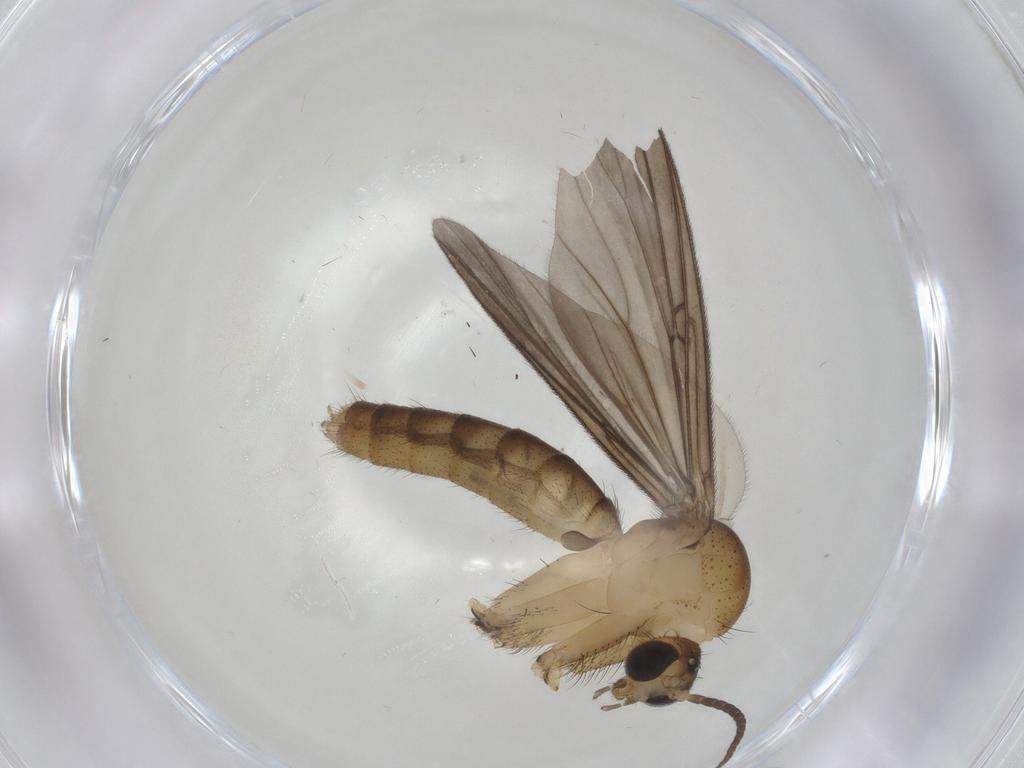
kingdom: Animalia
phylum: Arthropoda
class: Insecta
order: Diptera
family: Mycetophilidae
